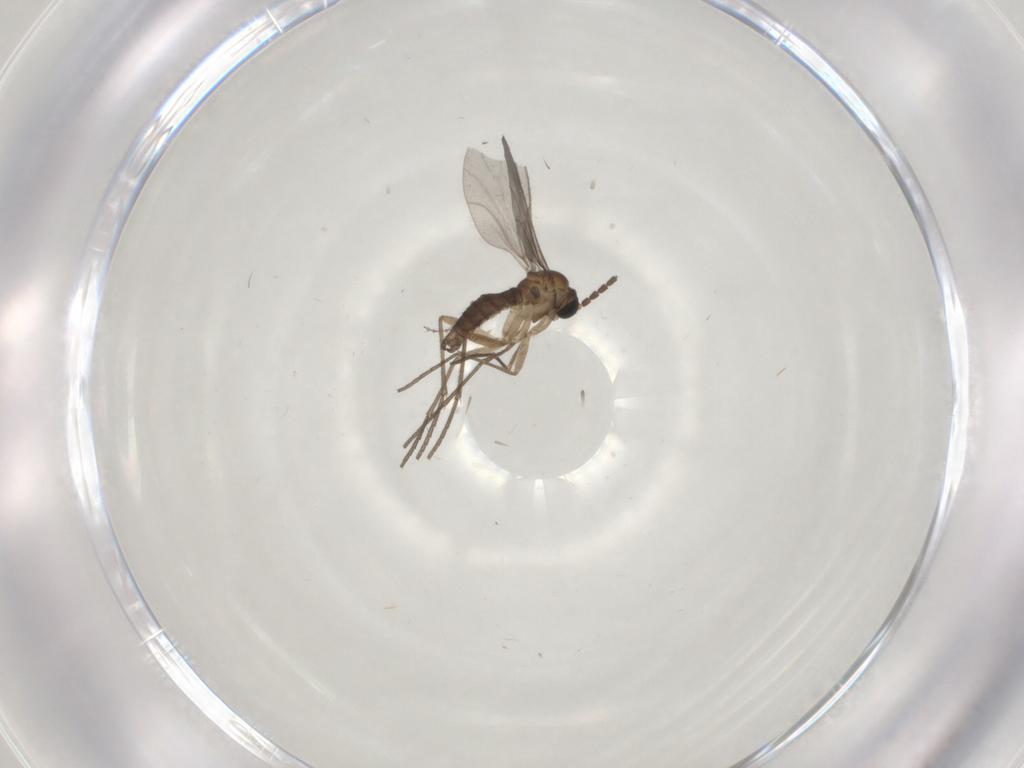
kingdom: Animalia
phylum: Arthropoda
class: Insecta
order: Diptera
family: Sciaridae
